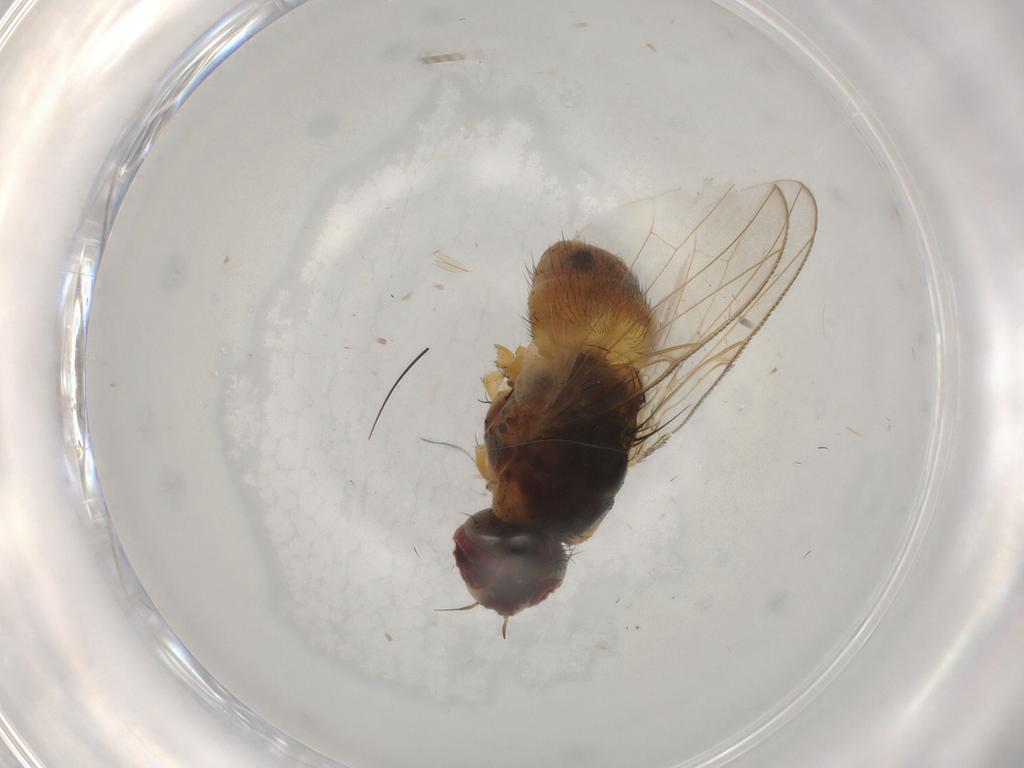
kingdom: Animalia
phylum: Arthropoda
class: Insecta
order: Diptera
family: Muscidae
